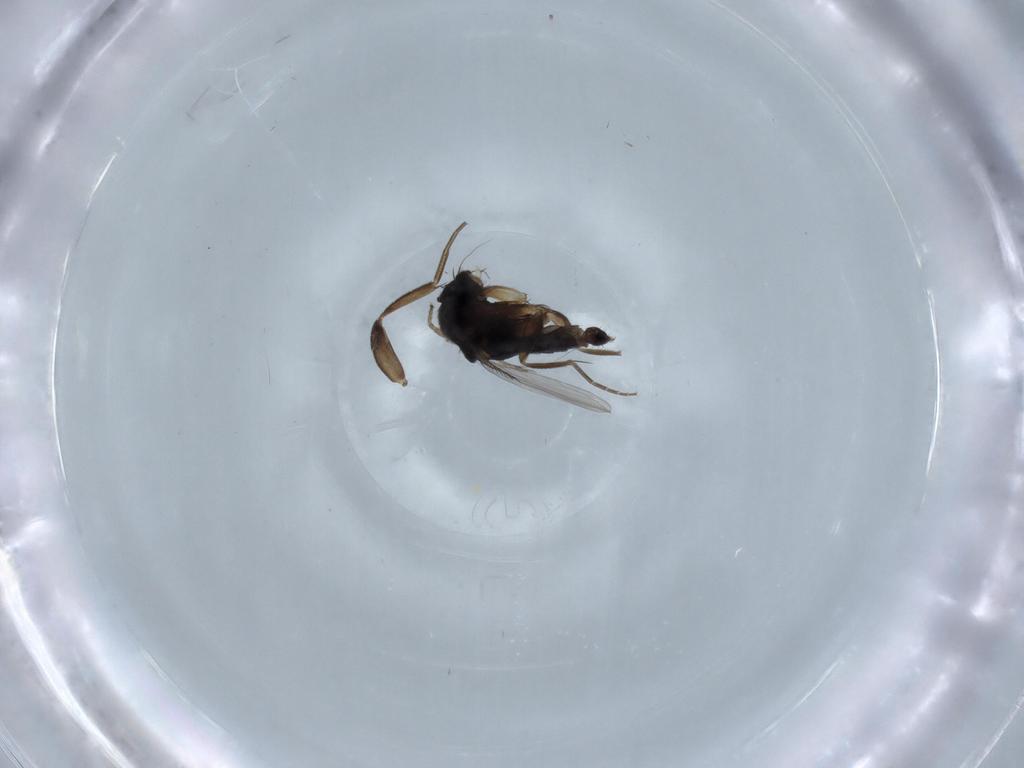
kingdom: Animalia
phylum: Arthropoda
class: Insecta
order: Diptera
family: Phoridae
